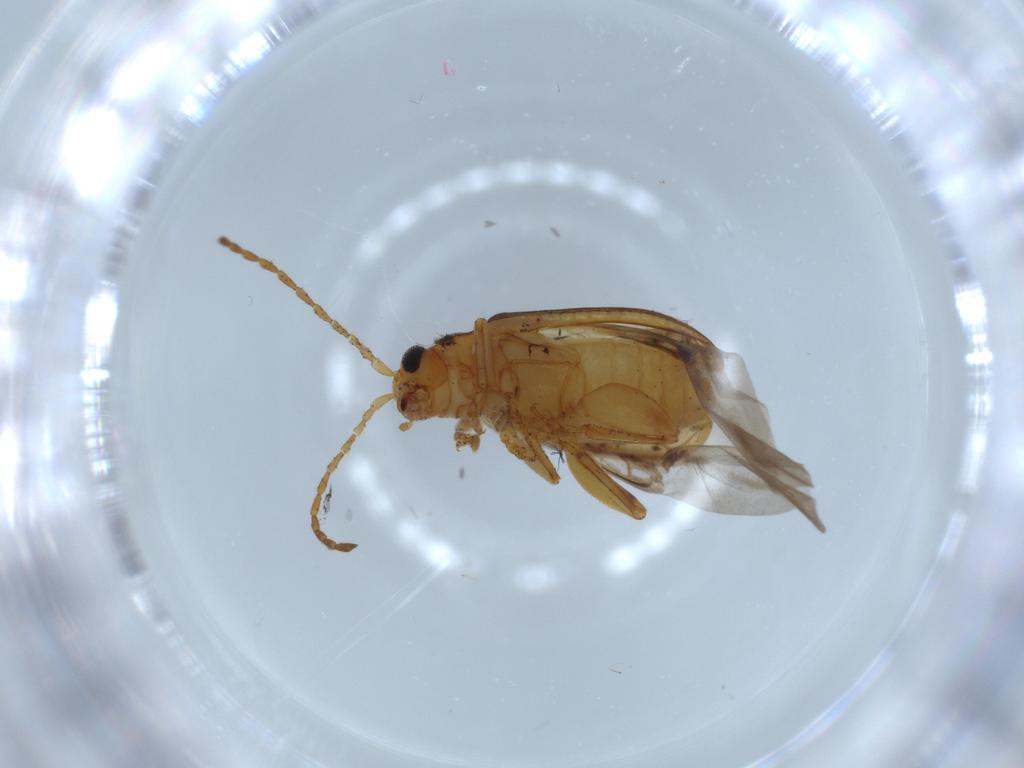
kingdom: Animalia
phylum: Arthropoda
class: Insecta
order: Coleoptera
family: Chrysomelidae
